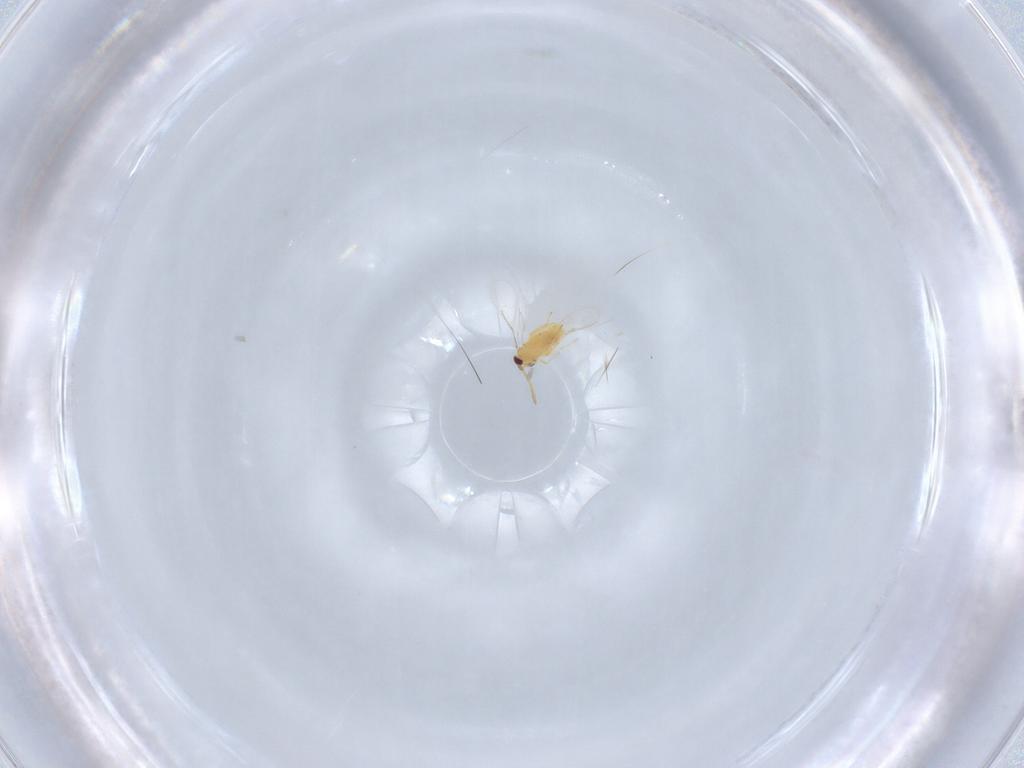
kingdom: Animalia
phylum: Arthropoda
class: Insecta
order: Hymenoptera
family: Aphelinidae
